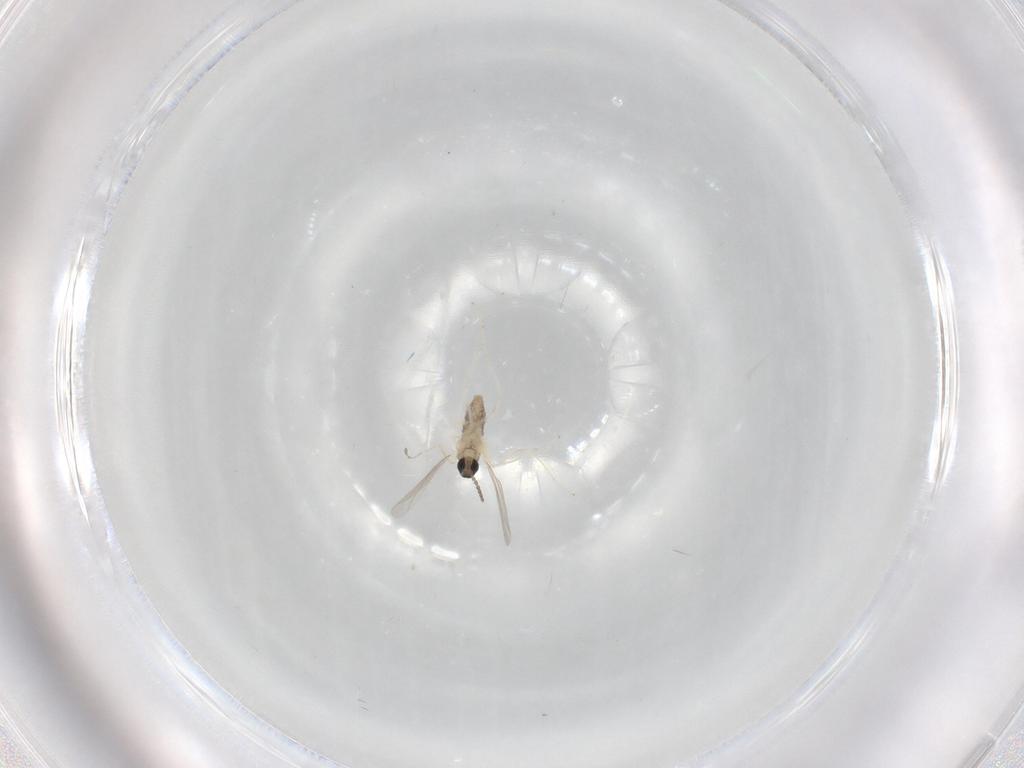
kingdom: Animalia
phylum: Arthropoda
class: Insecta
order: Diptera
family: Cecidomyiidae
